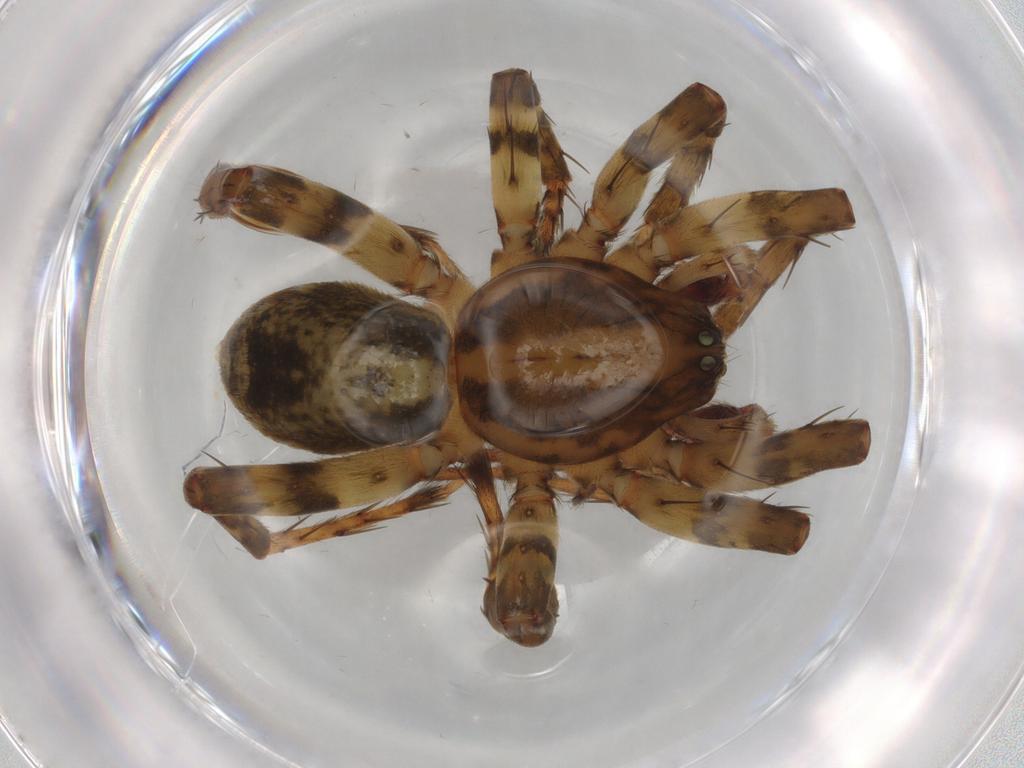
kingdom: Animalia
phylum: Arthropoda
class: Arachnida
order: Araneae
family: Anyphaenidae
